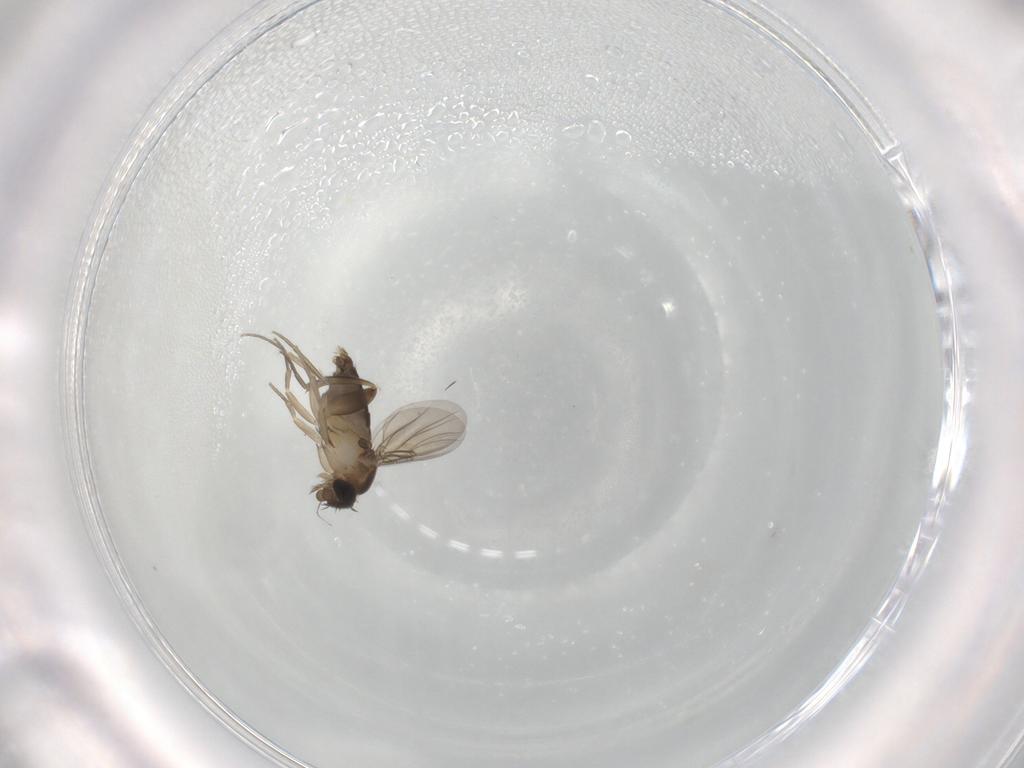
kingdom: Animalia
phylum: Arthropoda
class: Insecta
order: Diptera
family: Phoridae
